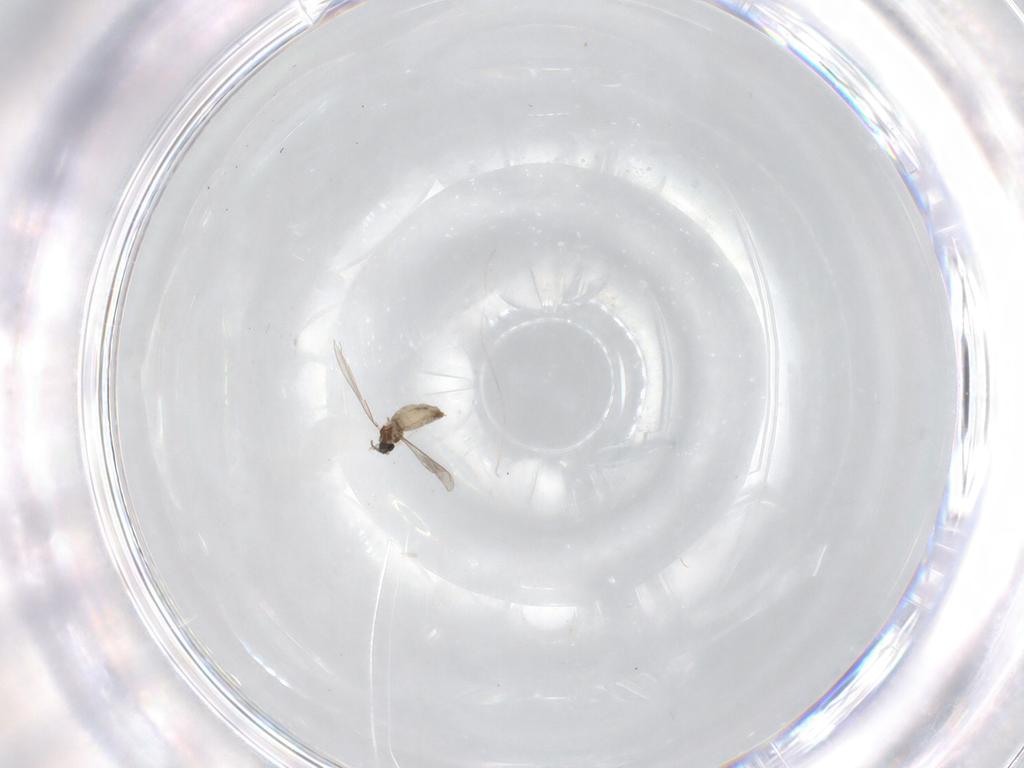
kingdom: Animalia
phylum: Arthropoda
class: Insecta
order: Diptera
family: Cecidomyiidae
